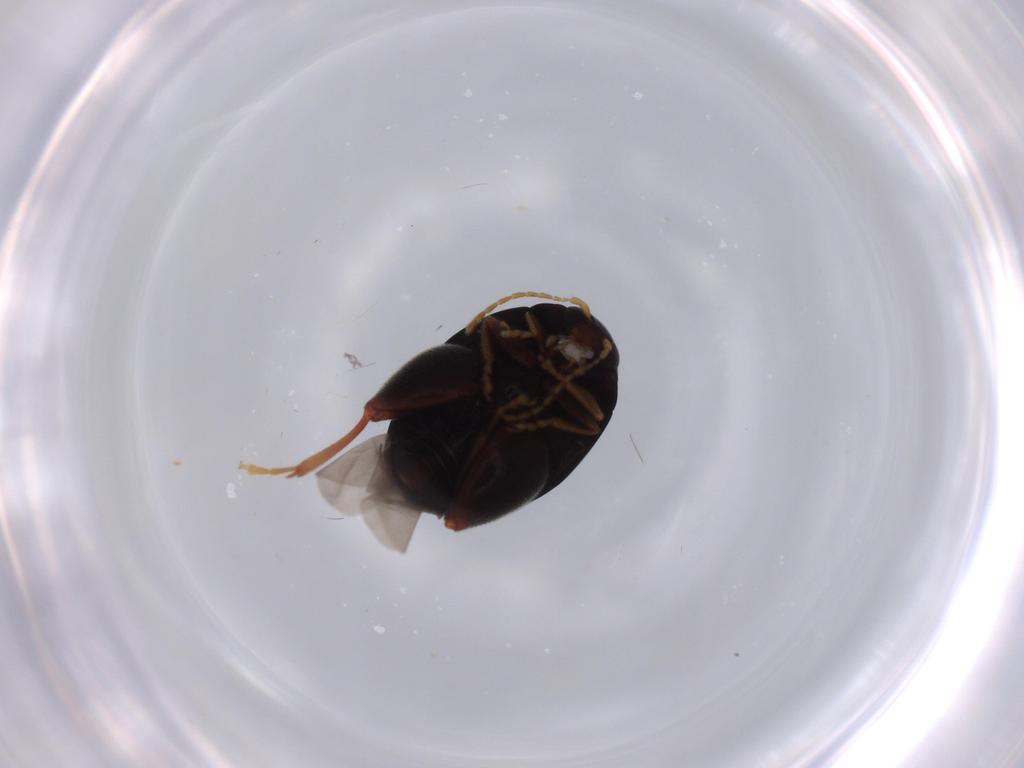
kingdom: Animalia
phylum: Arthropoda
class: Insecta
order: Coleoptera
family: Chrysomelidae
